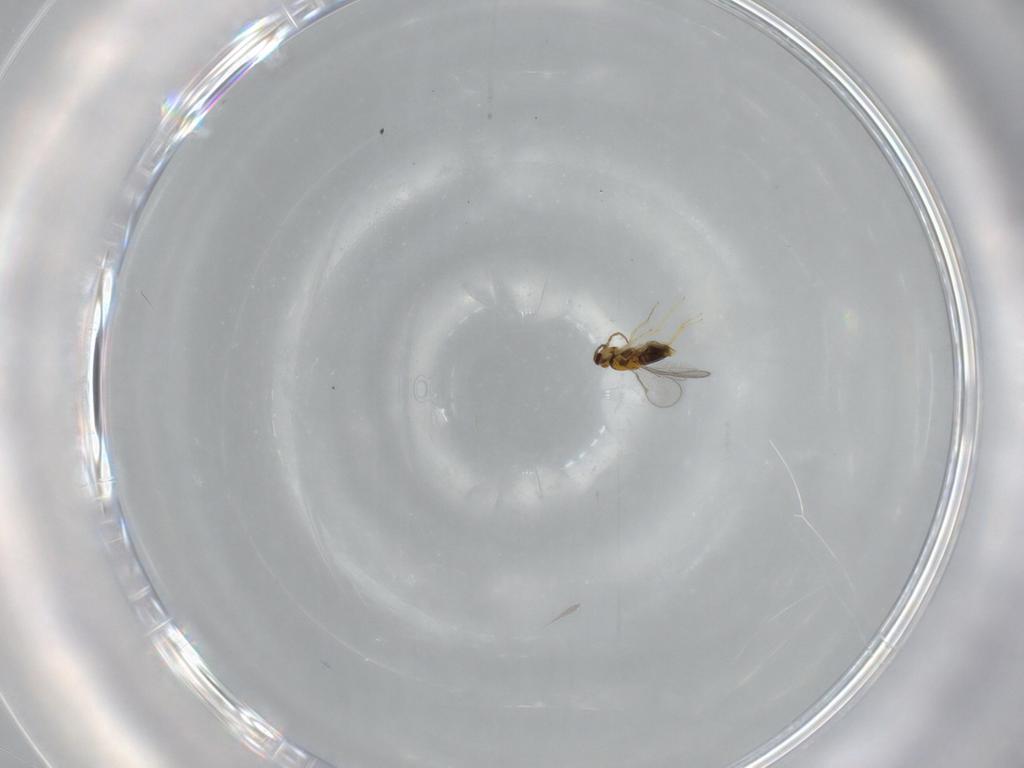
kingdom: Animalia
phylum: Arthropoda
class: Insecta
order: Hymenoptera
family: Aphelinidae
